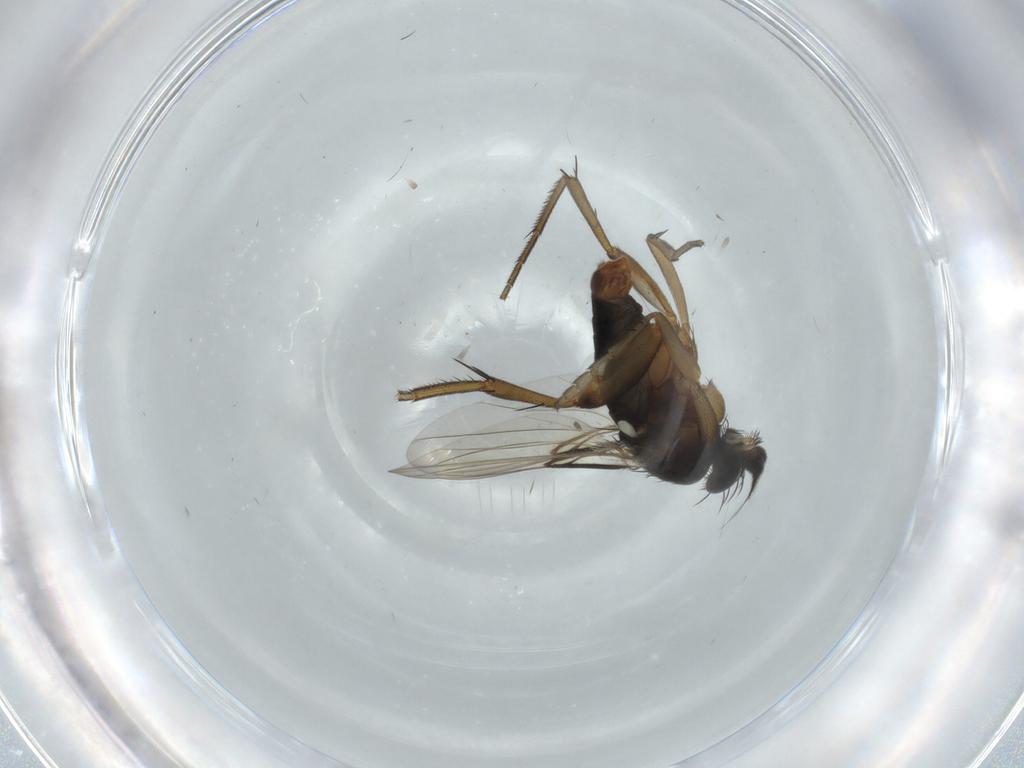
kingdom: Animalia
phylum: Arthropoda
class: Insecta
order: Diptera
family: Phoridae
